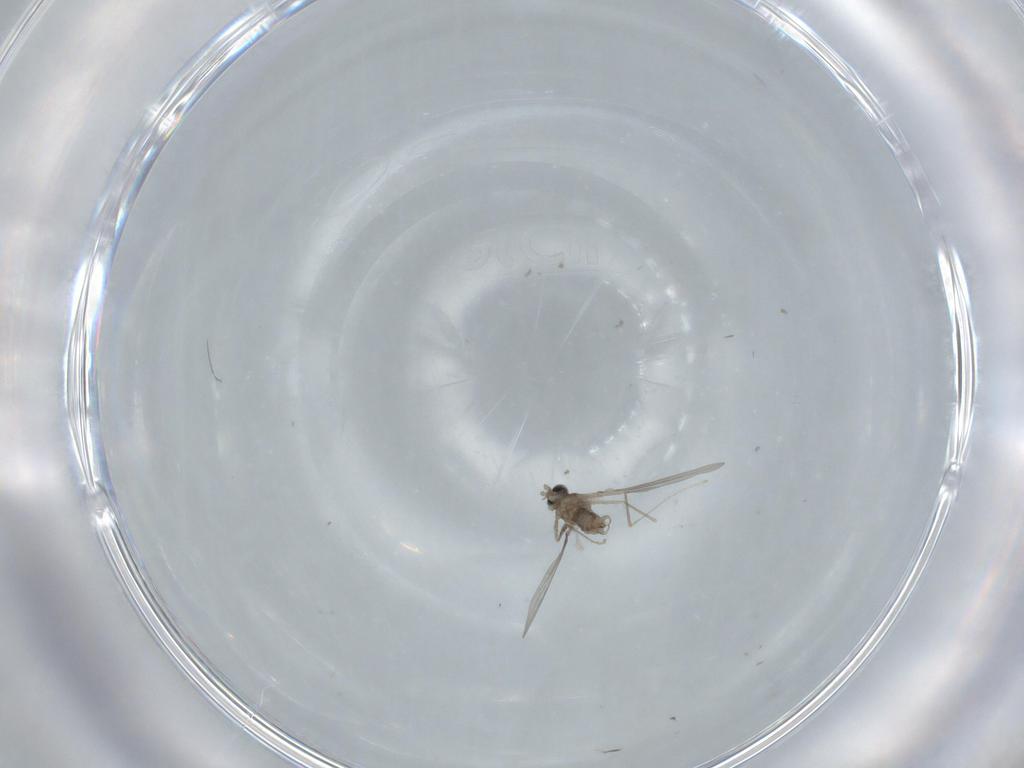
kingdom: Animalia
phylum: Arthropoda
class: Insecta
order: Diptera
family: Cecidomyiidae
